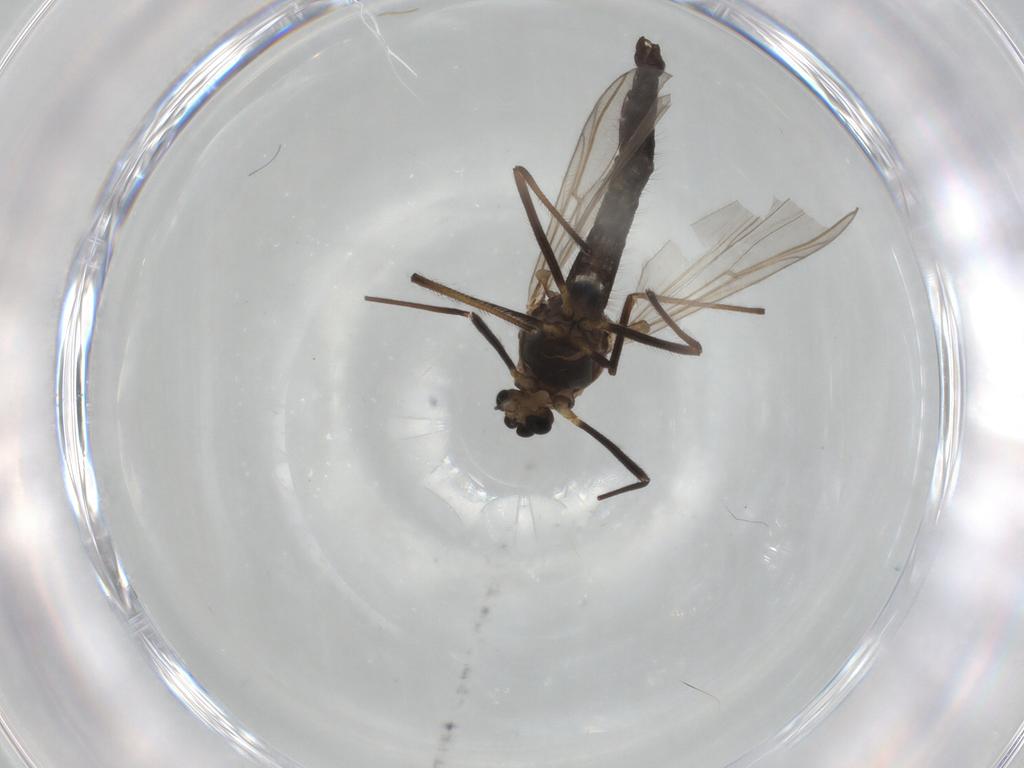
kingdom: Animalia
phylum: Arthropoda
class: Insecta
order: Diptera
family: Chironomidae
